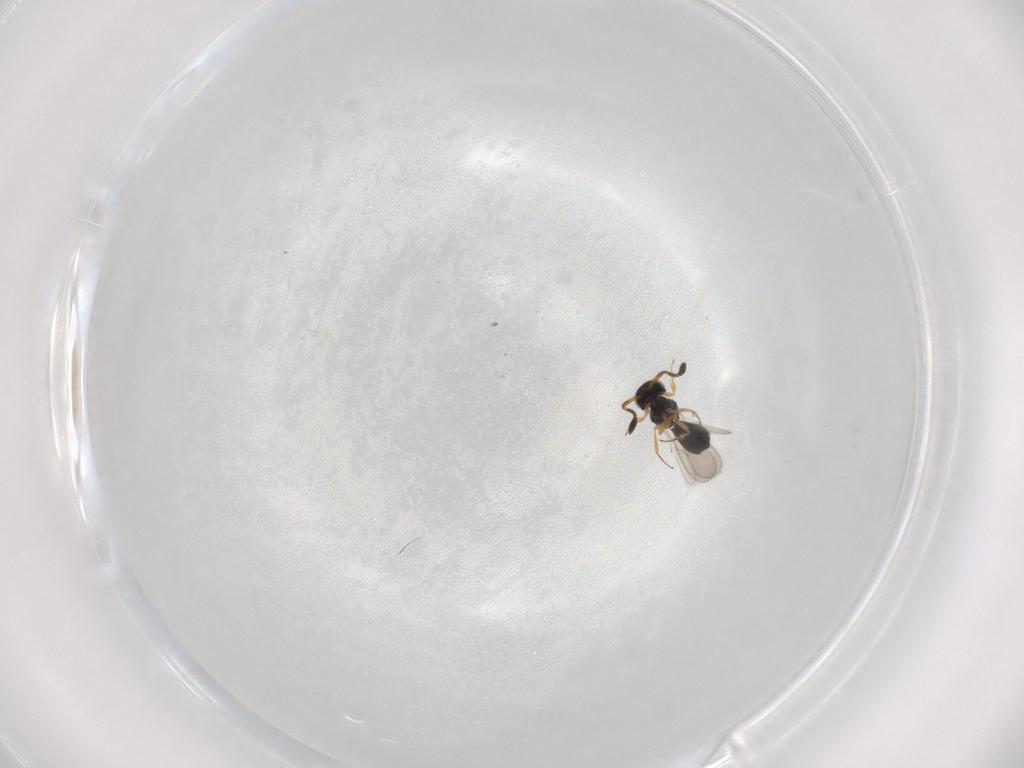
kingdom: Animalia
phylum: Arthropoda
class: Insecta
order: Hymenoptera
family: Scelionidae
